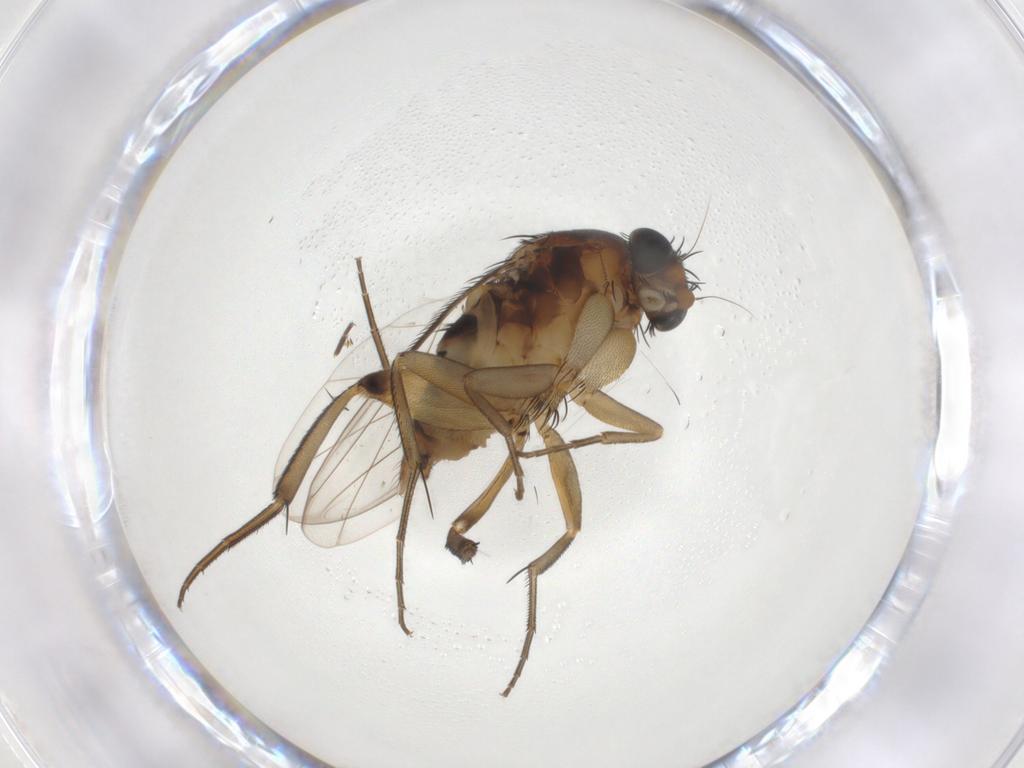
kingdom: Animalia
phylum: Arthropoda
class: Insecta
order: Diptera
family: Phoridae
